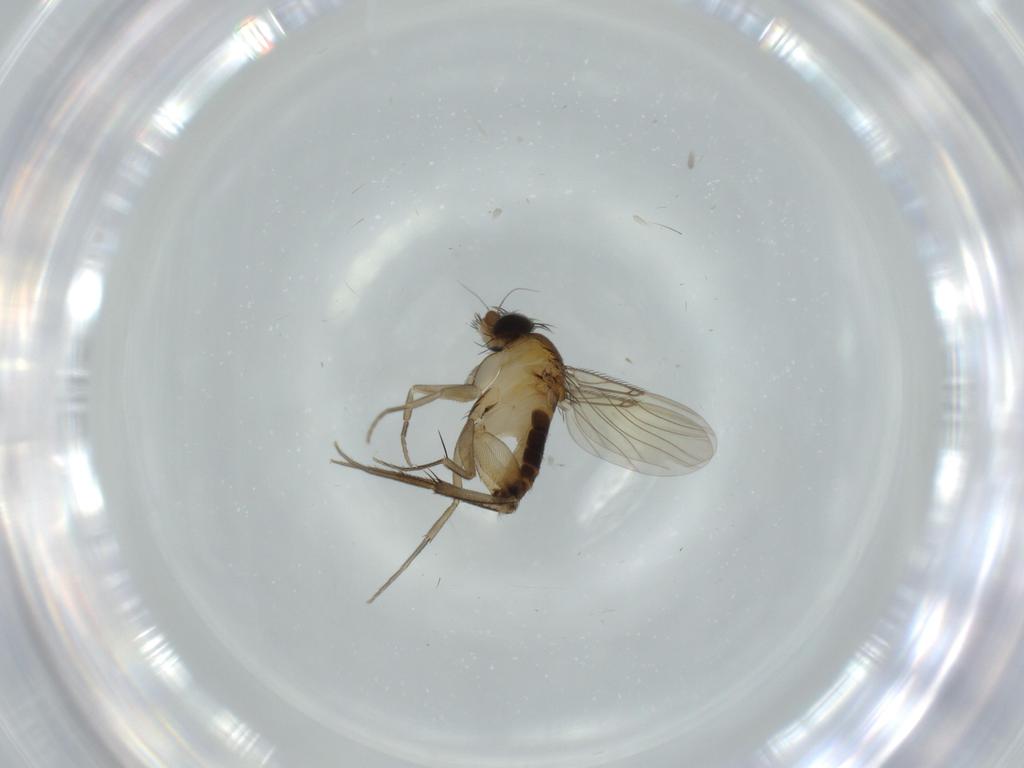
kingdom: Animalia
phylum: Arthropoda
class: Insecta
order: Diptera
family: Phoridae
